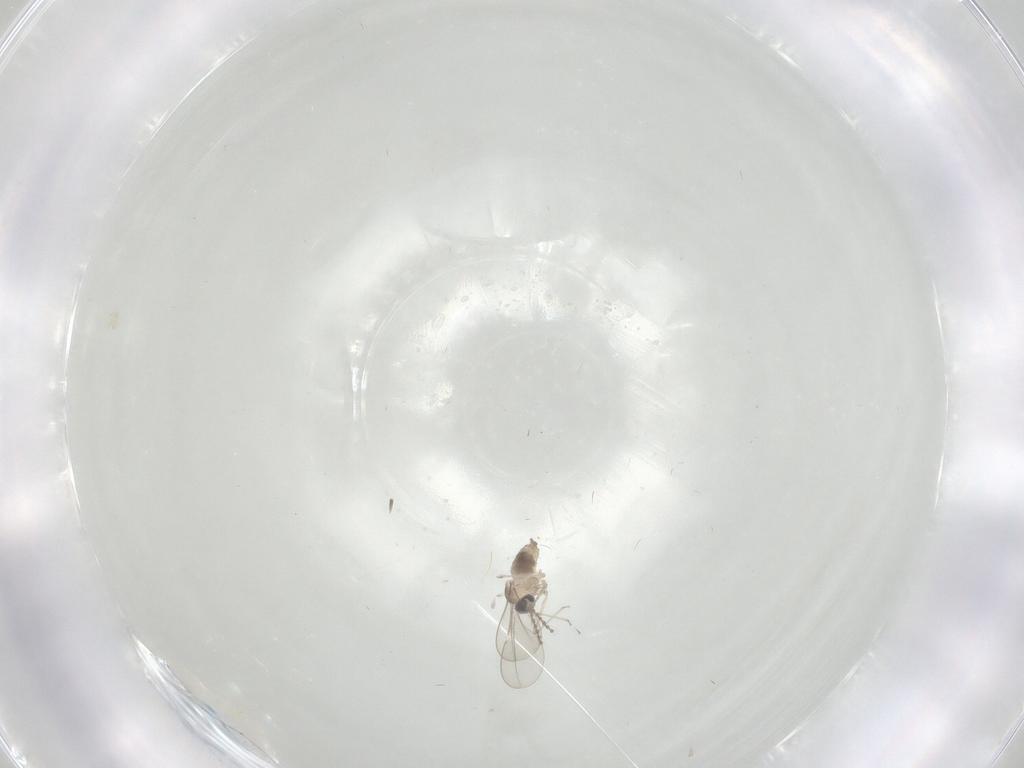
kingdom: Animalia
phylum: Arthropoda
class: Insecta
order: Diptera
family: Cecidomyiidae
